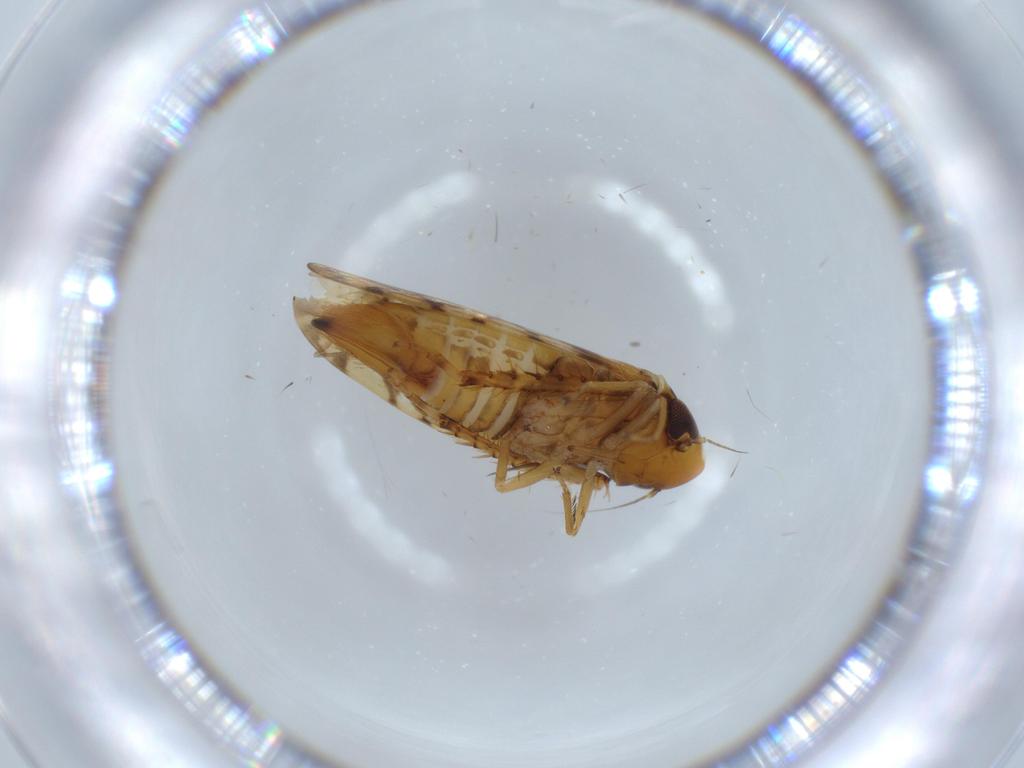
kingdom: Animalia
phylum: Arthropoda
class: Insecta
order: Hemiptera
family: Cicadellidae
